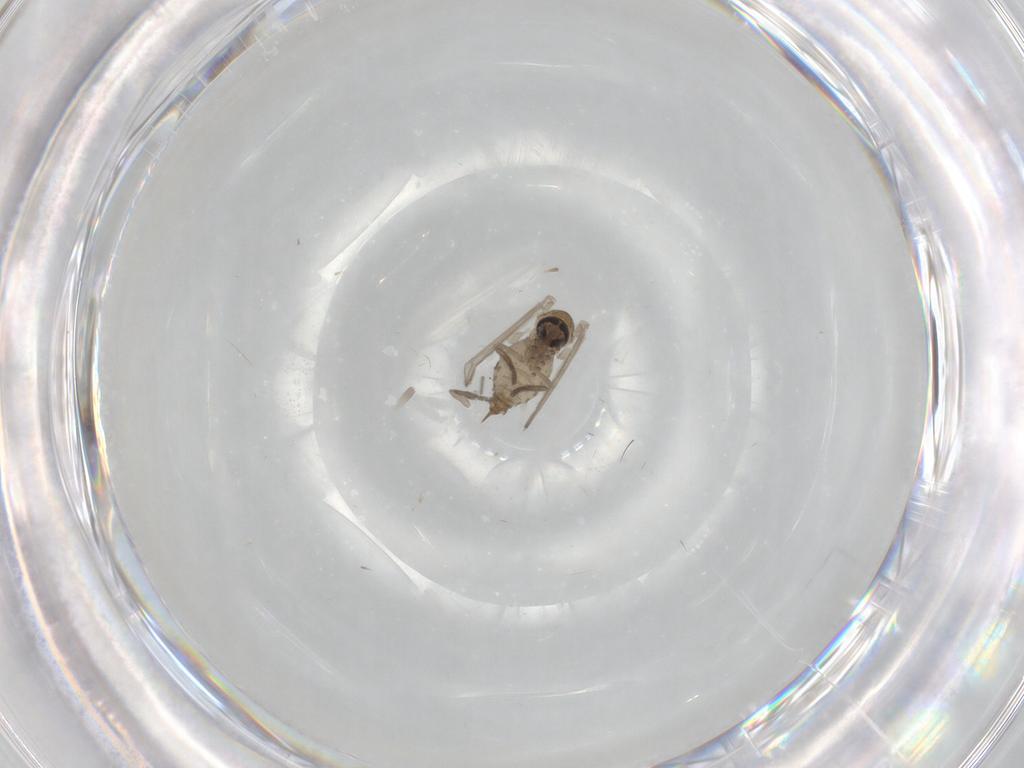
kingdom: Animalia
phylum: Arthropoda
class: Insecta
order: Diptera
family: Psychodidae
